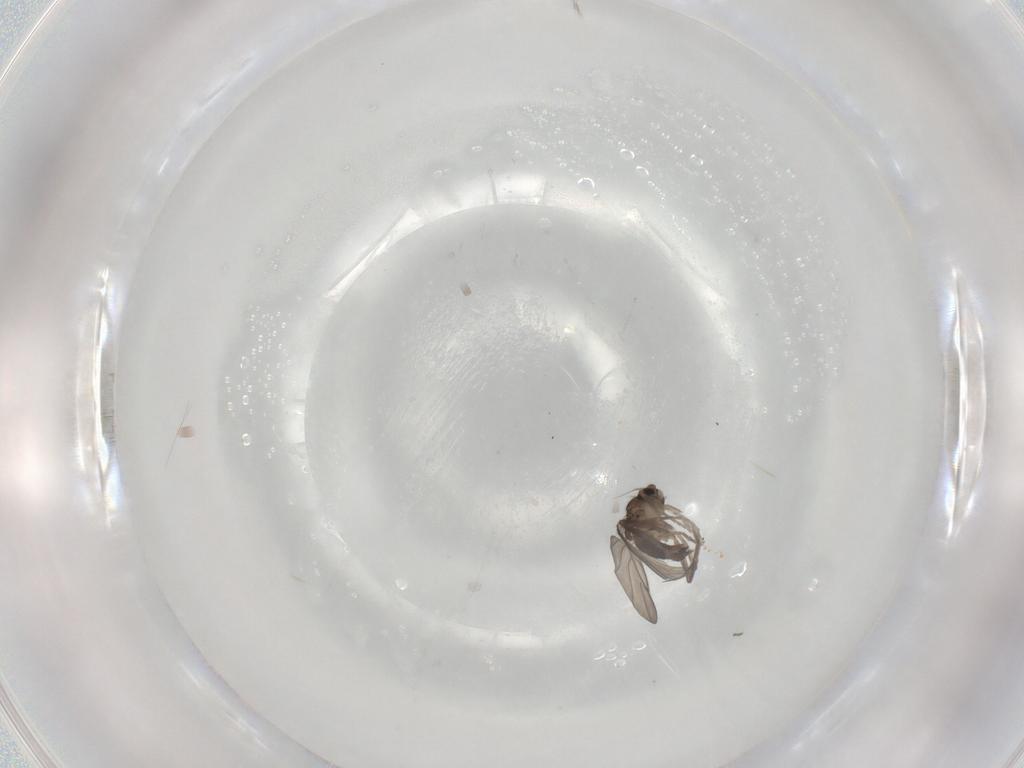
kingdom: Animalia
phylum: Arthropoda
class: Insecta
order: Diptera
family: Phoridae
